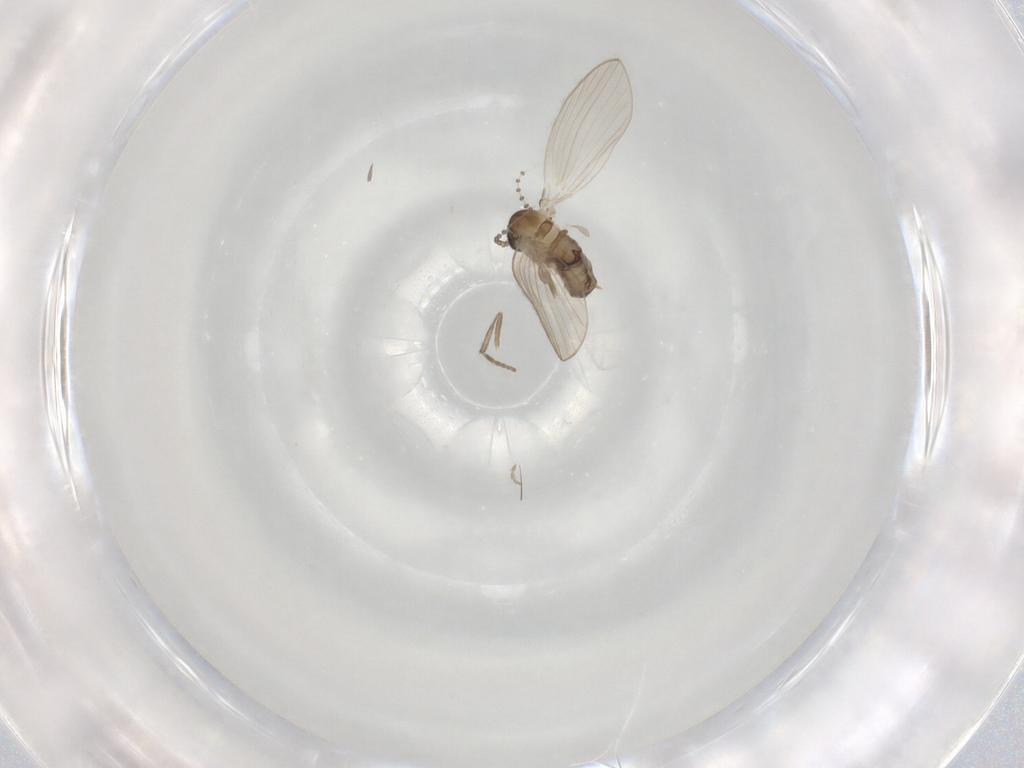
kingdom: Animalia
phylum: Arthropoda
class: Insecta
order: Diptera
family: Psychodidae
